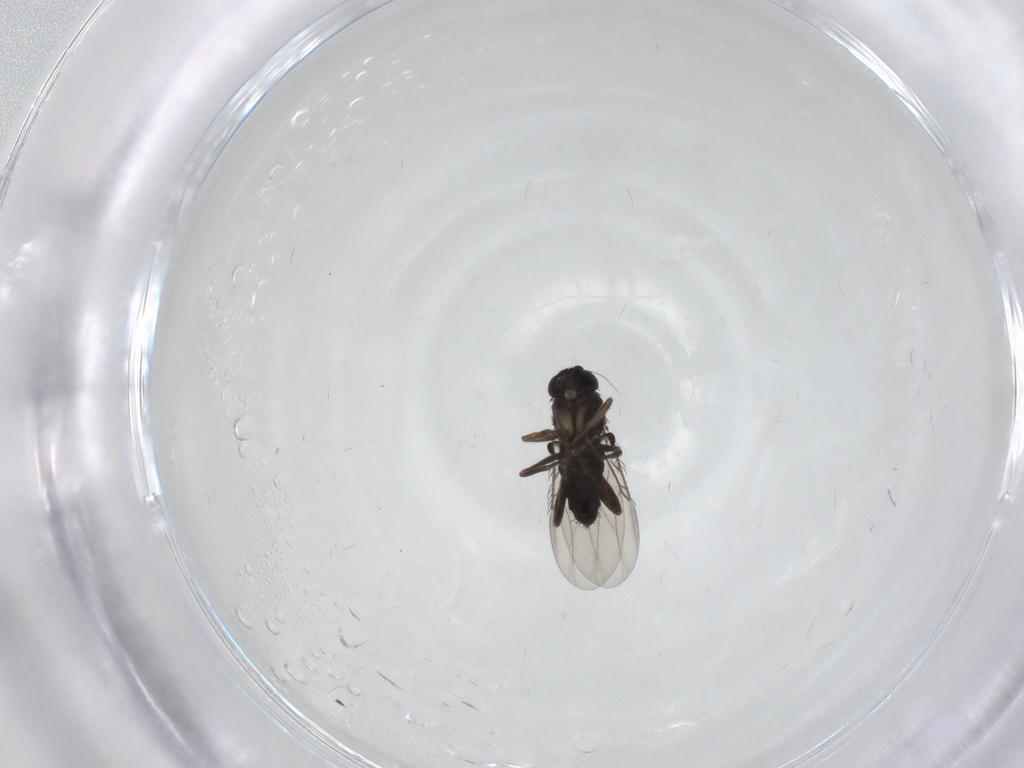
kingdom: Animalia
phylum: Arthropoda
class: Insecta
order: Diptera
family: Phoridae
